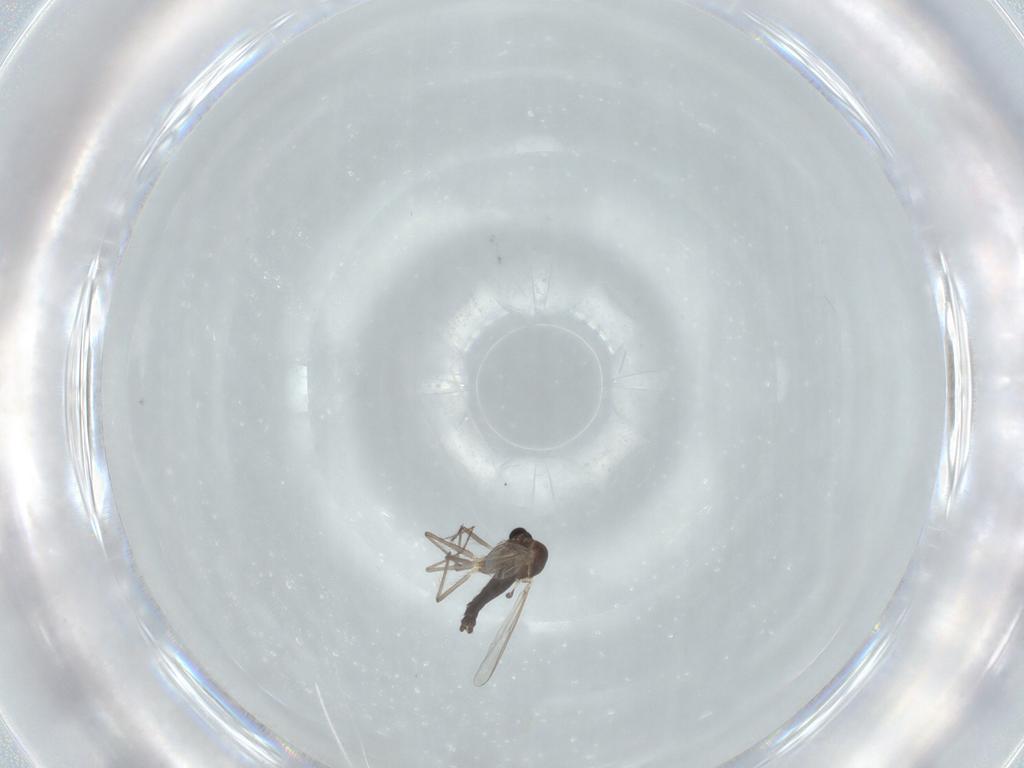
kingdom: Animalia
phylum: Arthropoda
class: Insecta
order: Diptera
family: Chironomidae
